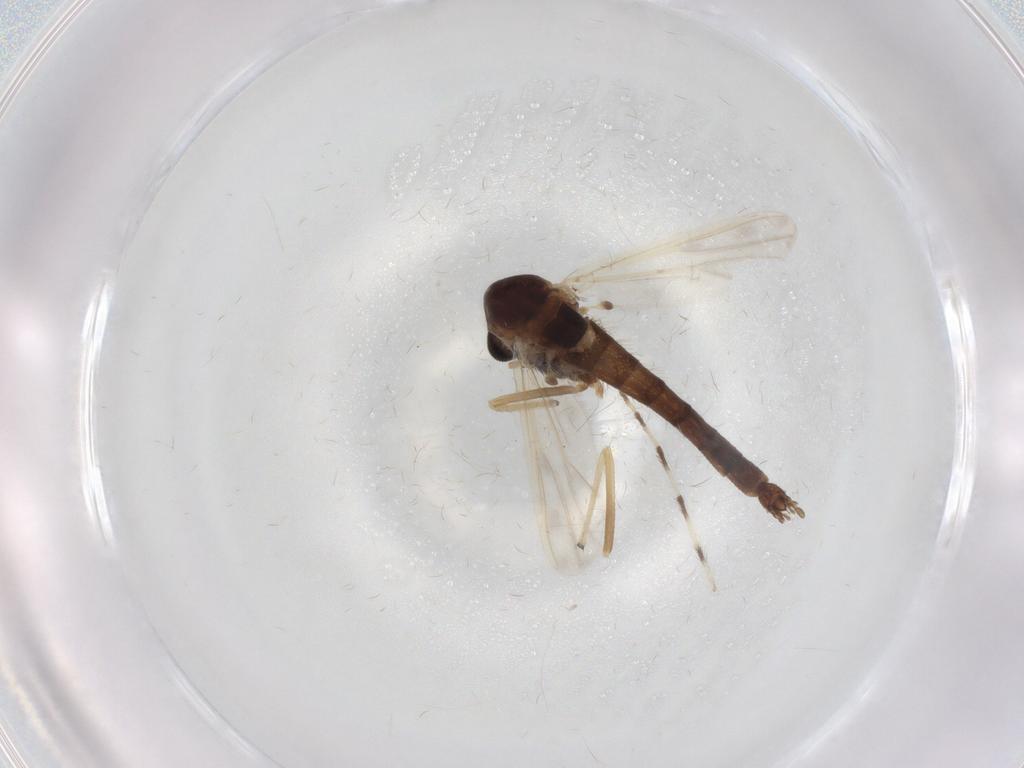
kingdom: Animalia
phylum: Arthropoda
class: Insecta
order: Diptera
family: Chironomidae
